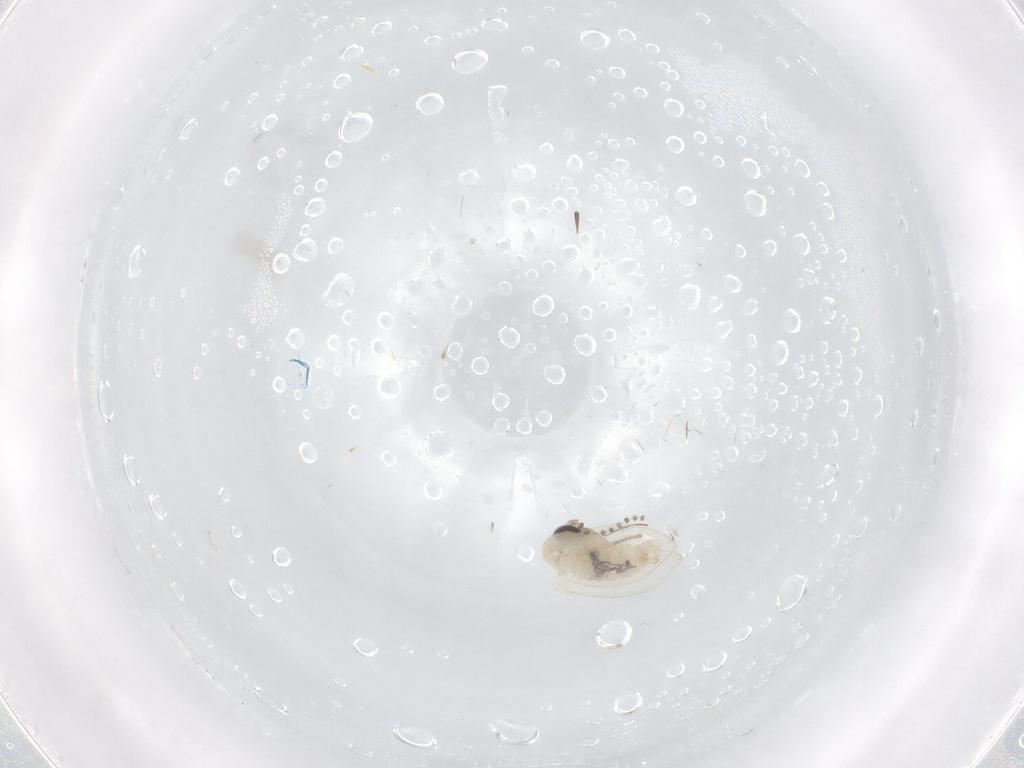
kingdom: Animalia
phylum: Arthropoda
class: Insecta
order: Diptera
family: Psychodidae
